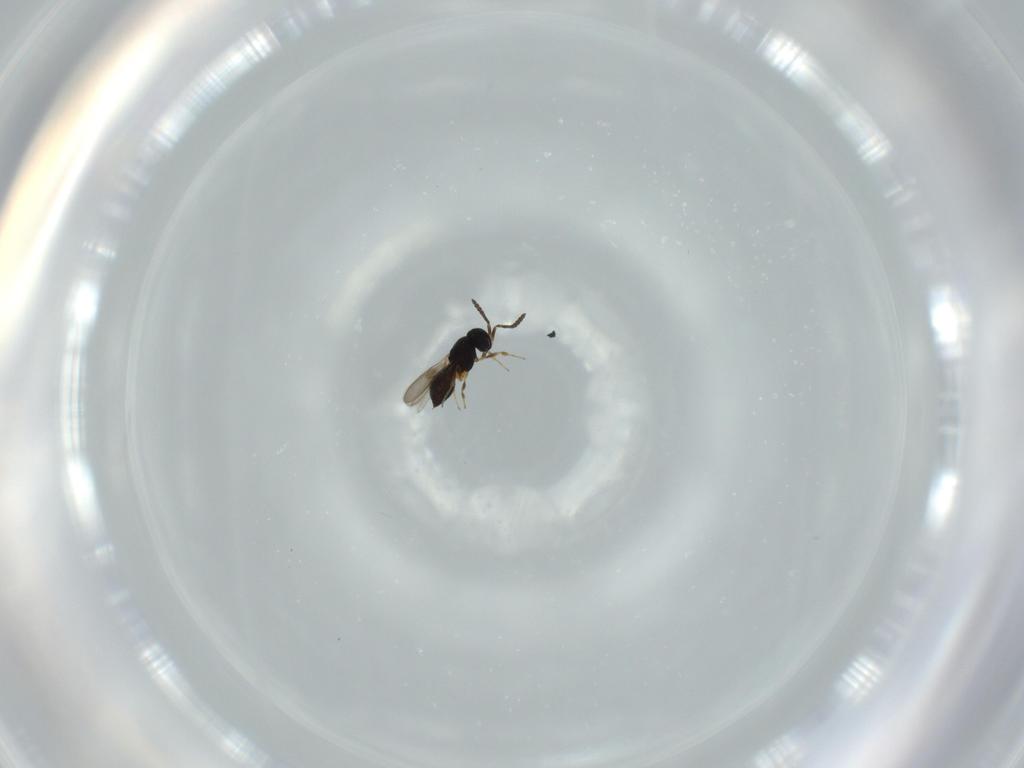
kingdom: Animalia
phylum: Arthropoda
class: Insecta
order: Hymenoptera
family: Scelionidae
